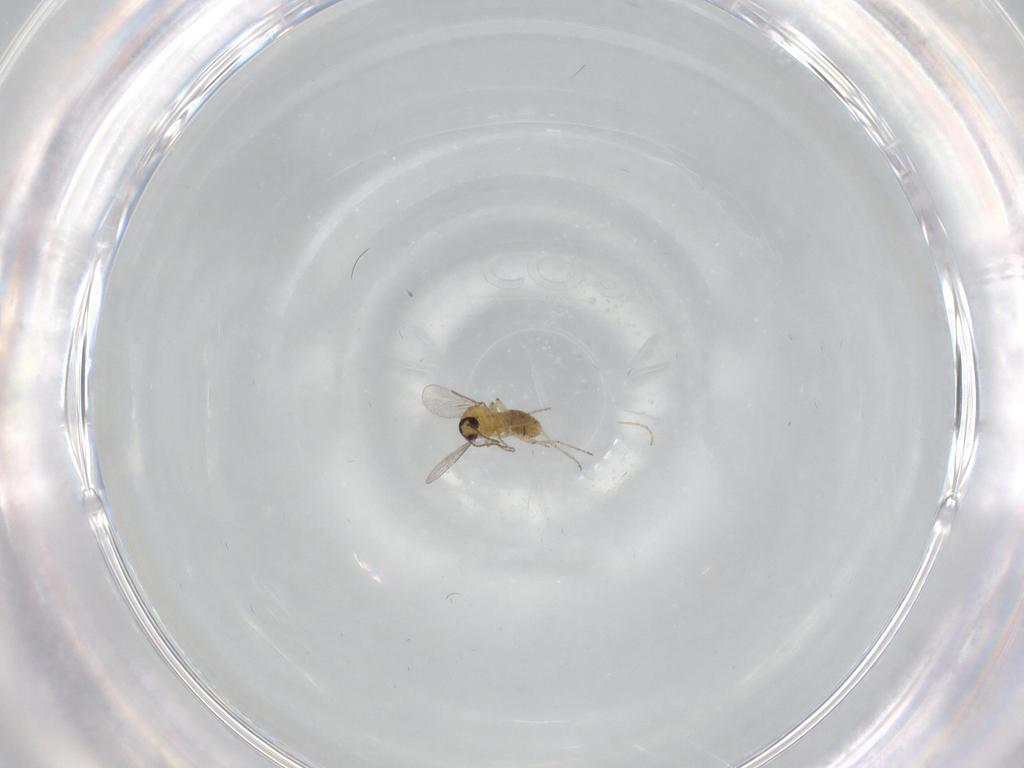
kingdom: Animalia
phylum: Arthropoda
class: Insecta
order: Diptera
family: Ceratopogonidae
